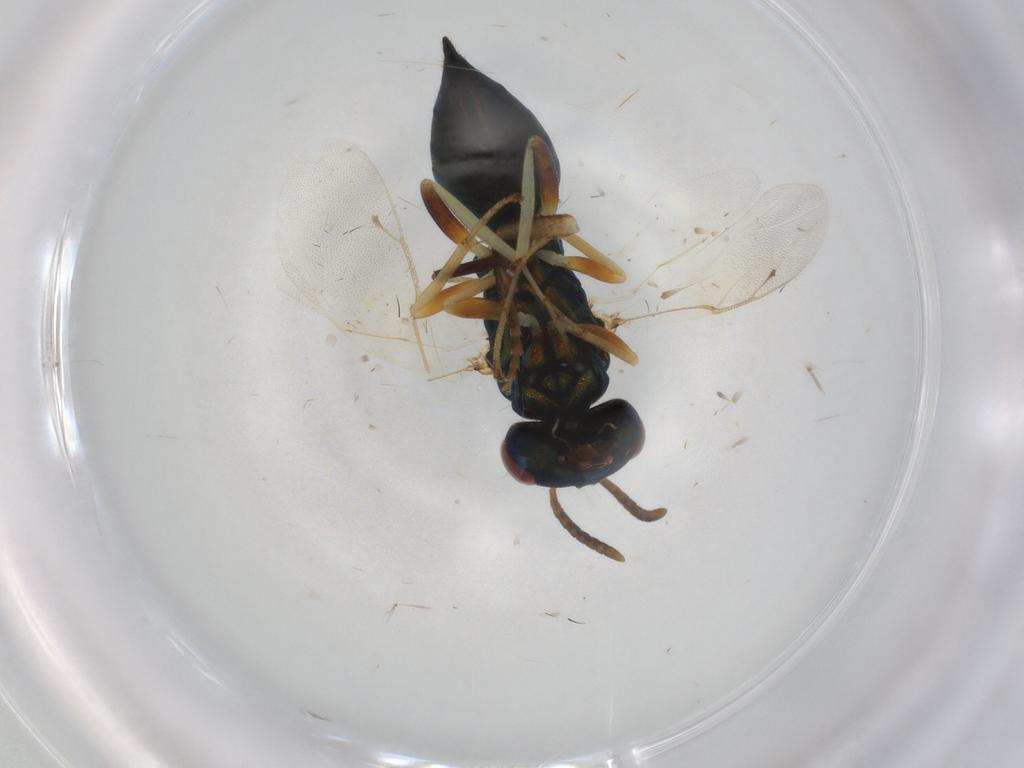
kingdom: Animalia
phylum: Arthropoda
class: Insecta
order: Hymenoptera
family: Pteromalidae
